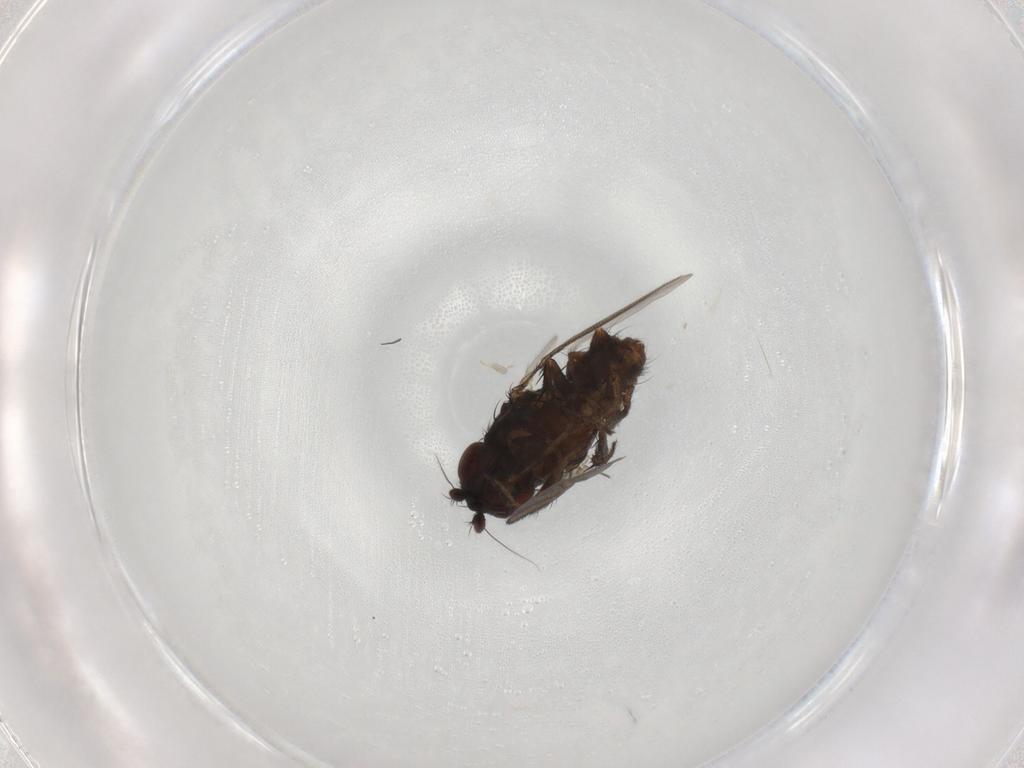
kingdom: Animalia
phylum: Arthropoda
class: Insecta
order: Diptera
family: Sphaeroceridae
